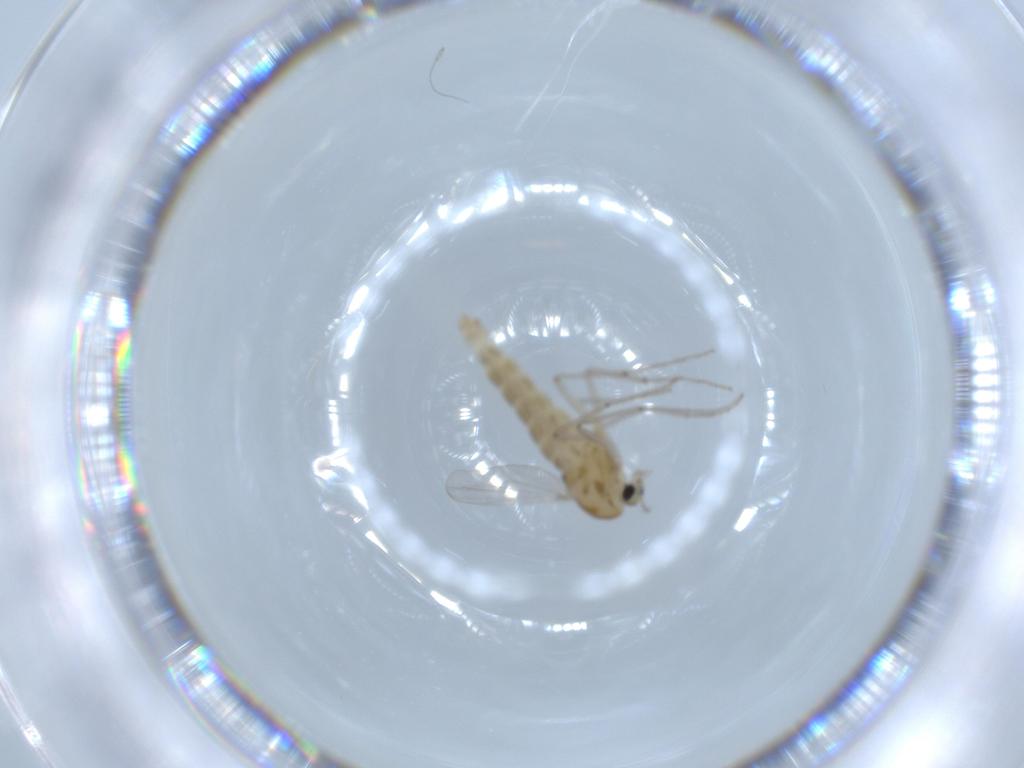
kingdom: Animalia
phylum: Arthropoda
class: Insecta
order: Diptera
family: Chironomidae
